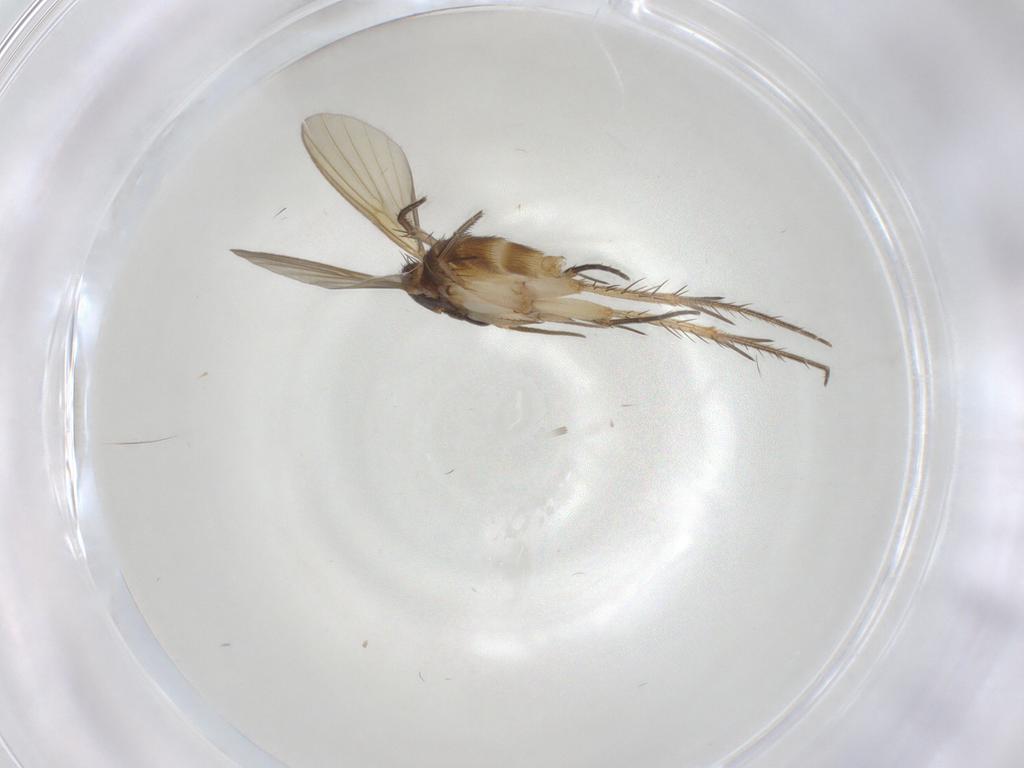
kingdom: Animalia
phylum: Arthropoda
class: Insecta
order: Diptera
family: Mycetophilidae
